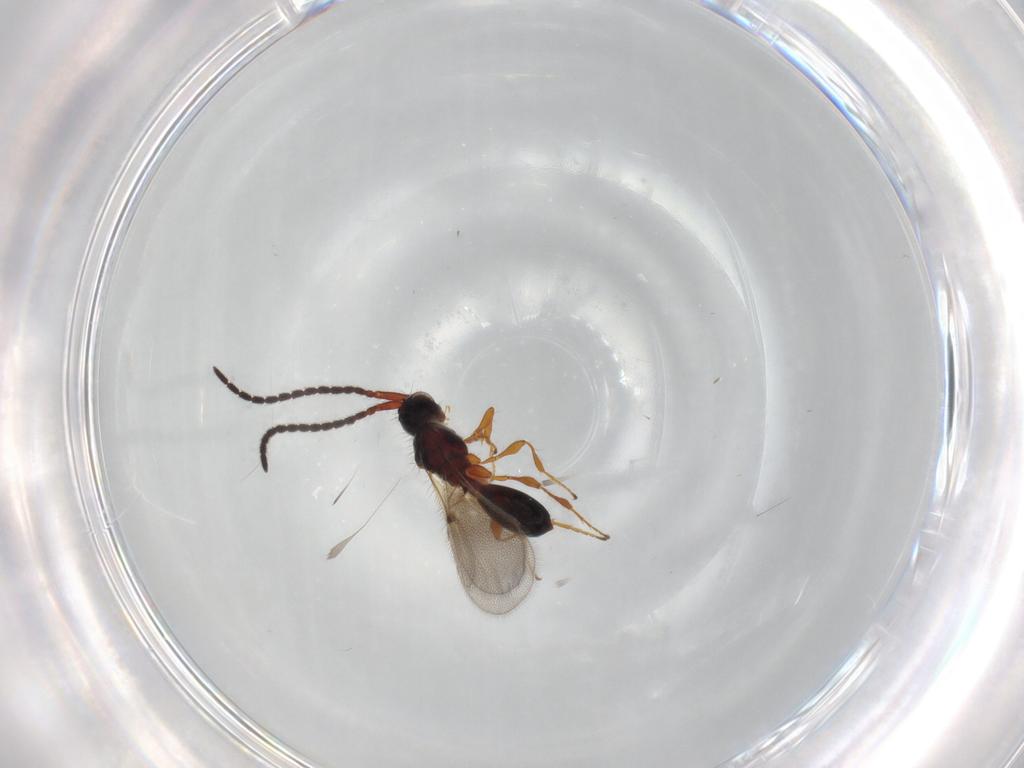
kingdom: Animalia
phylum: Arthropoda
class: Insecta
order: Hymenoptera
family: Diapriidae
